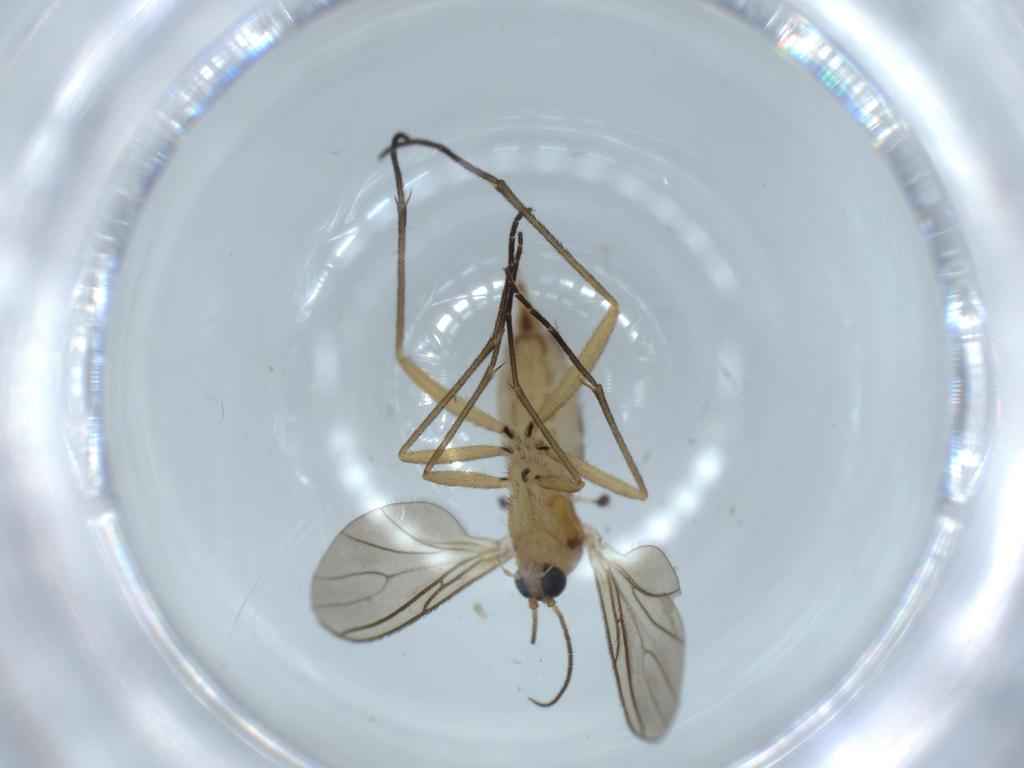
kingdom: Animalia
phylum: Arthropoda
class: Insecta
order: Diptera
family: Sciaridae
